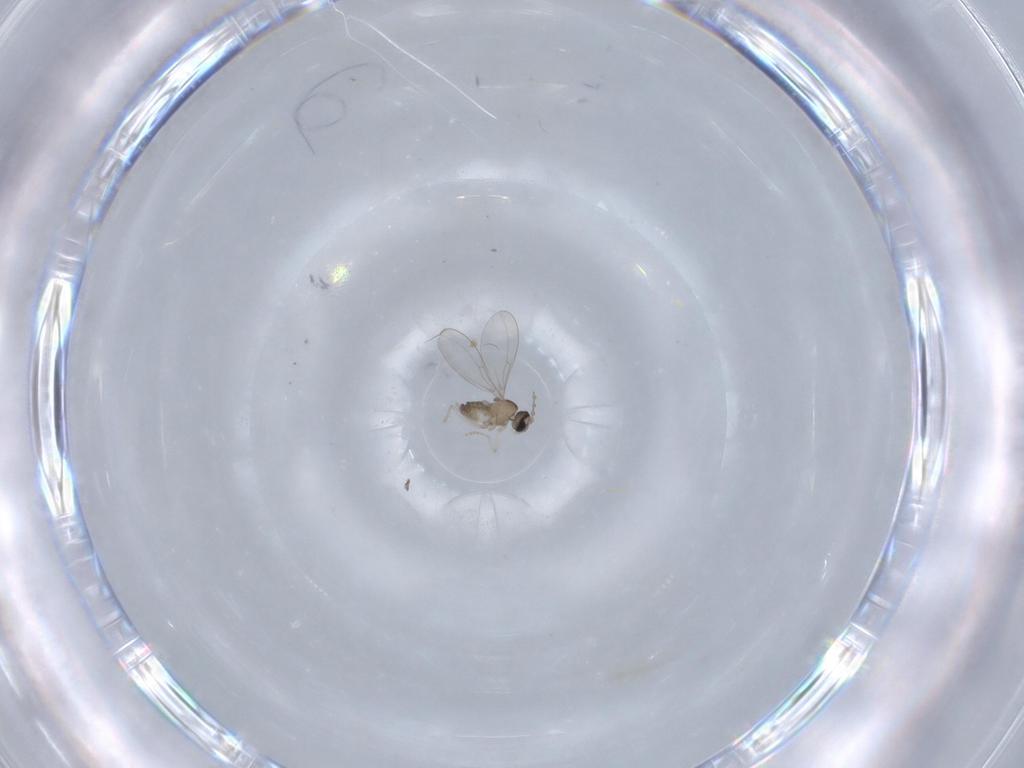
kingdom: Animalia
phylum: Arthropoda
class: Insecta
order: Diptera
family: Cecidomyiidae
